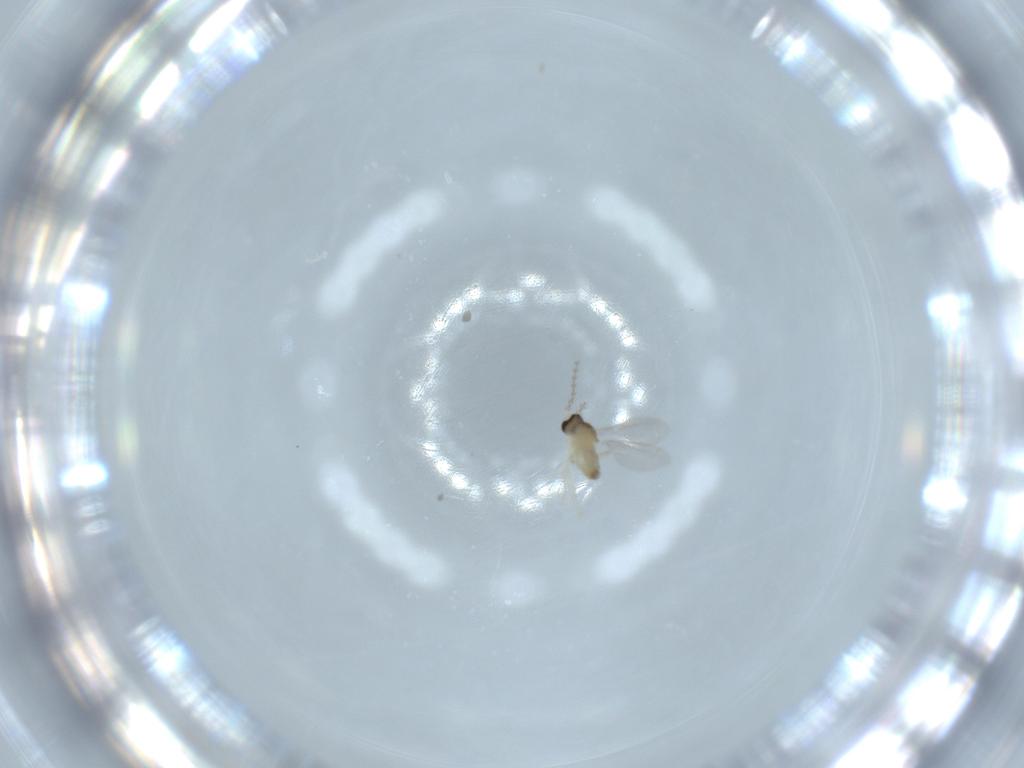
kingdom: Animalia
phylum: Arthropoda
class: Insecta
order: Diptera
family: Cecidomyiidae
